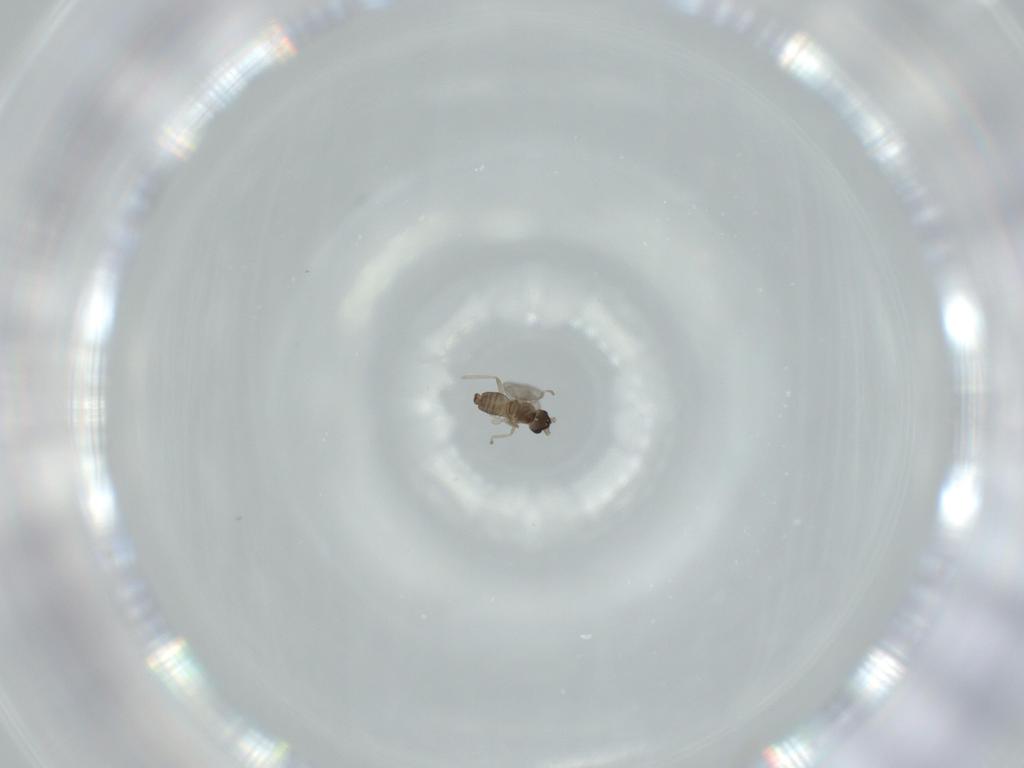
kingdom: Animalia
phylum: Arthropoda
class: Insecta
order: Diptera
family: Cecidomyiidae
